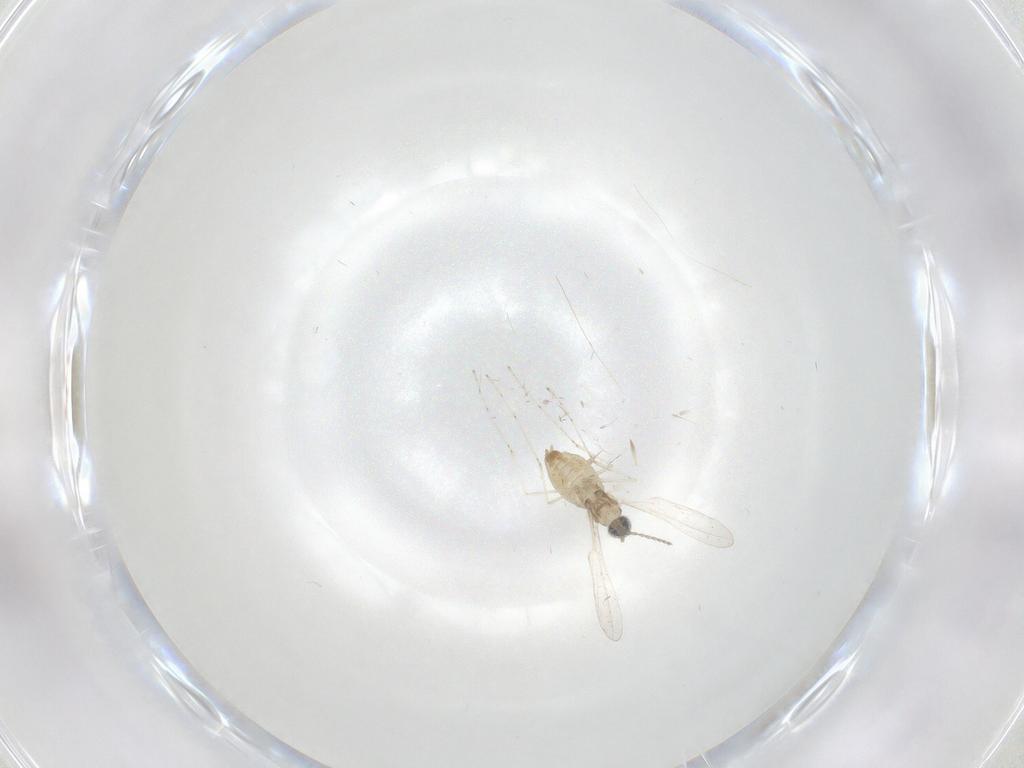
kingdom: Animalia
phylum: Arthropoda
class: Insecta
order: Diptera
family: Cecidomyiidae
